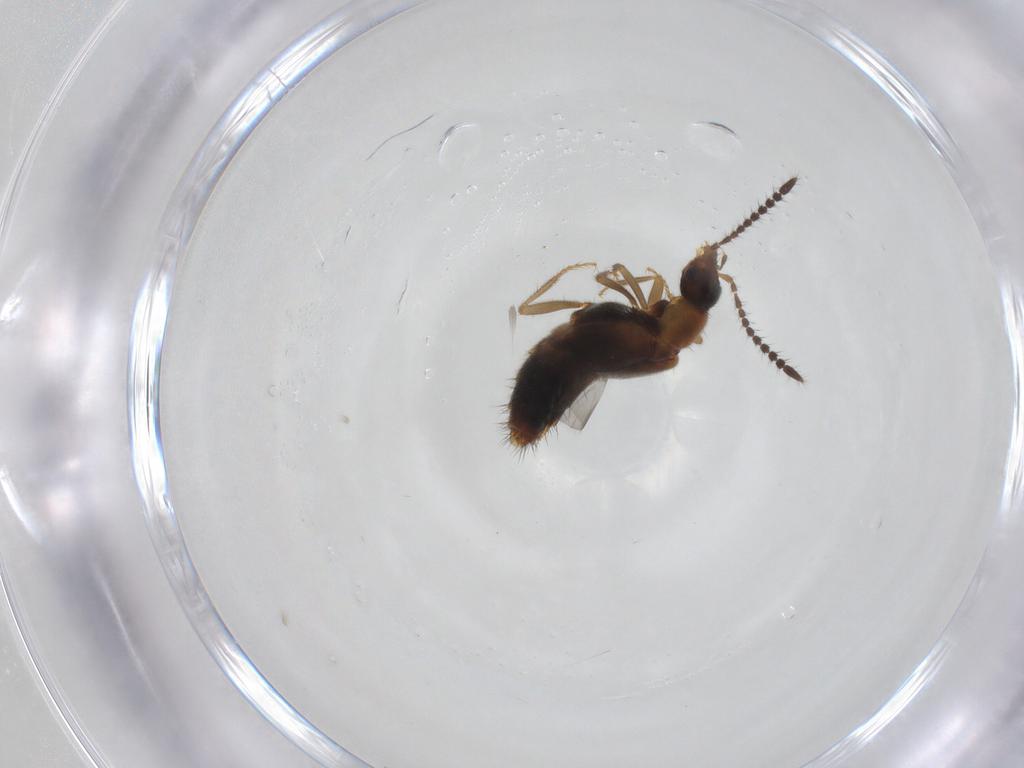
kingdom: Animalia
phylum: Arthropoda
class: Insecta
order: Coleoptera
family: Staphylinidae
